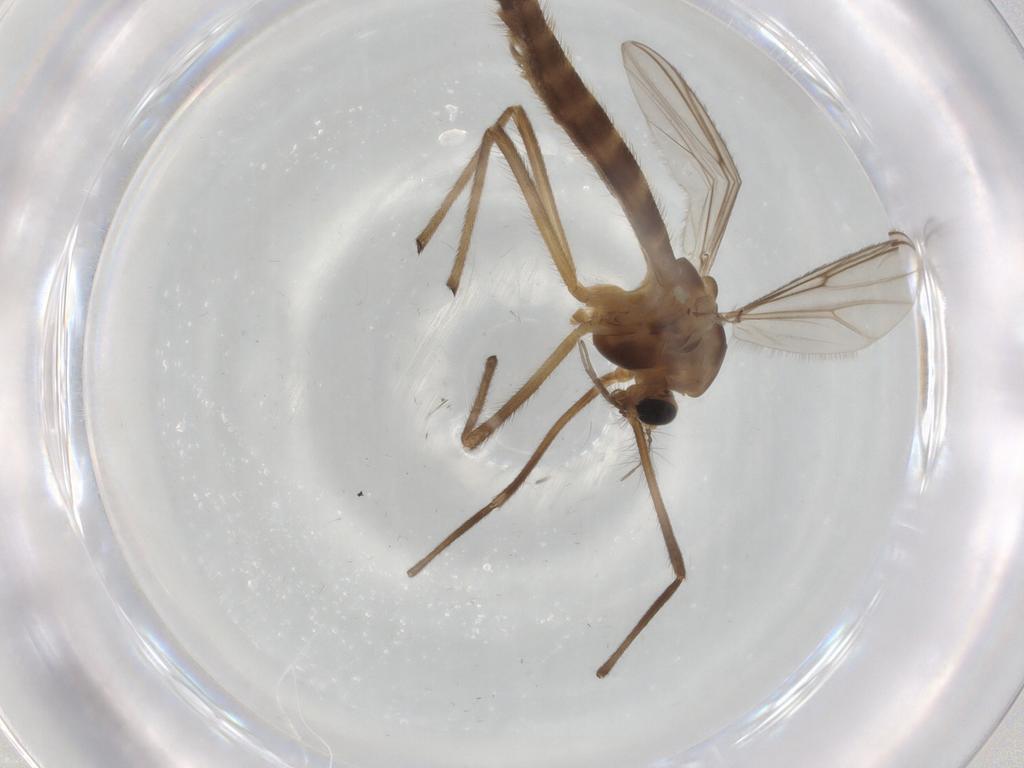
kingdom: Animalia
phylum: Arthropoda
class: Insecta
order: Diptera
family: Chironomidae
